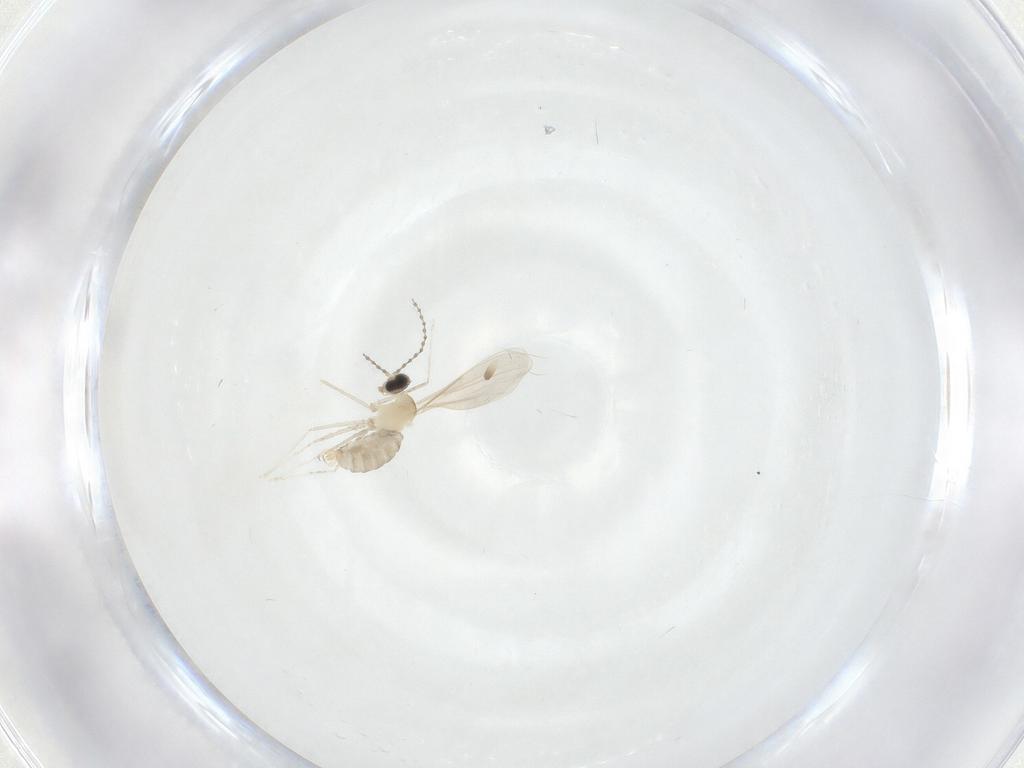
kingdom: Animalia
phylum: Arthropoda
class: Insecta
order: Diptera
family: Cecidomyiidae
